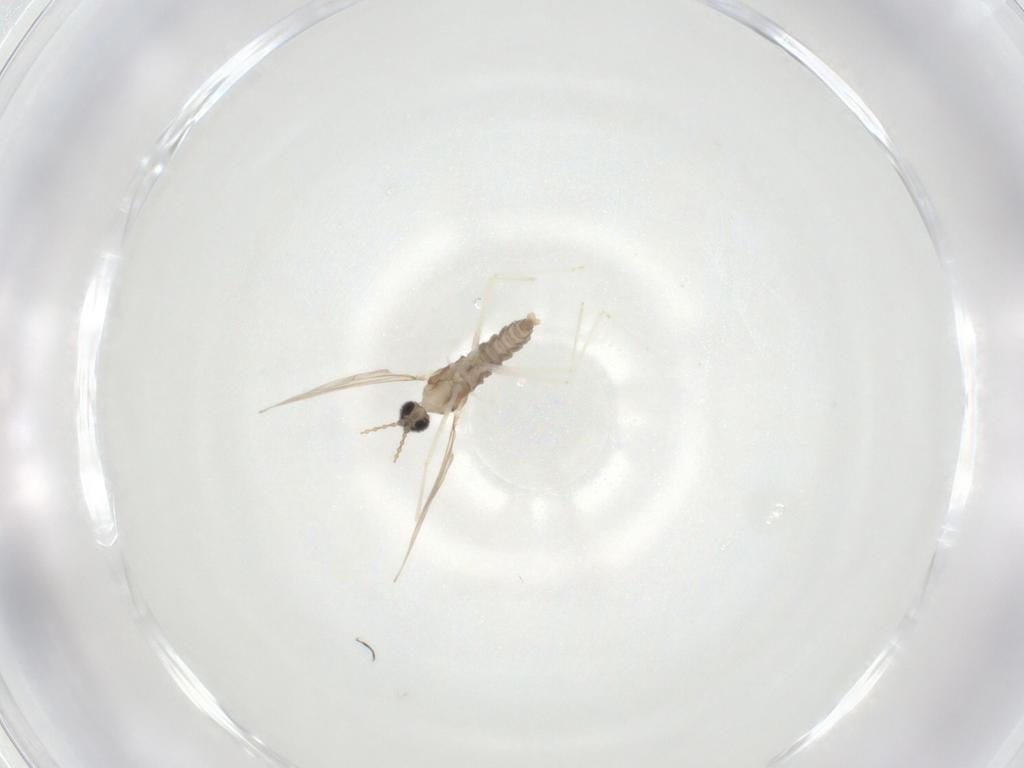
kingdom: Animalia
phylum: Arthropoda
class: Insecta
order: Diptera
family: Cecidomyiidae
